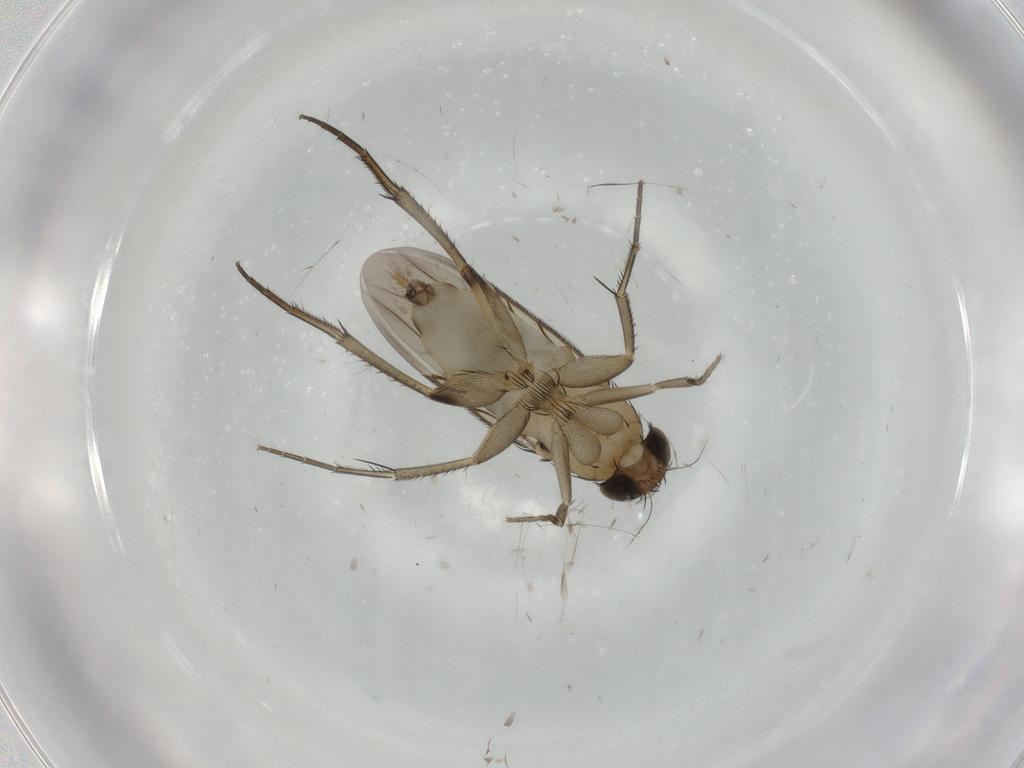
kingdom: Animalia
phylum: Arthropoda
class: Insecta
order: Diptera
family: Phoridae
